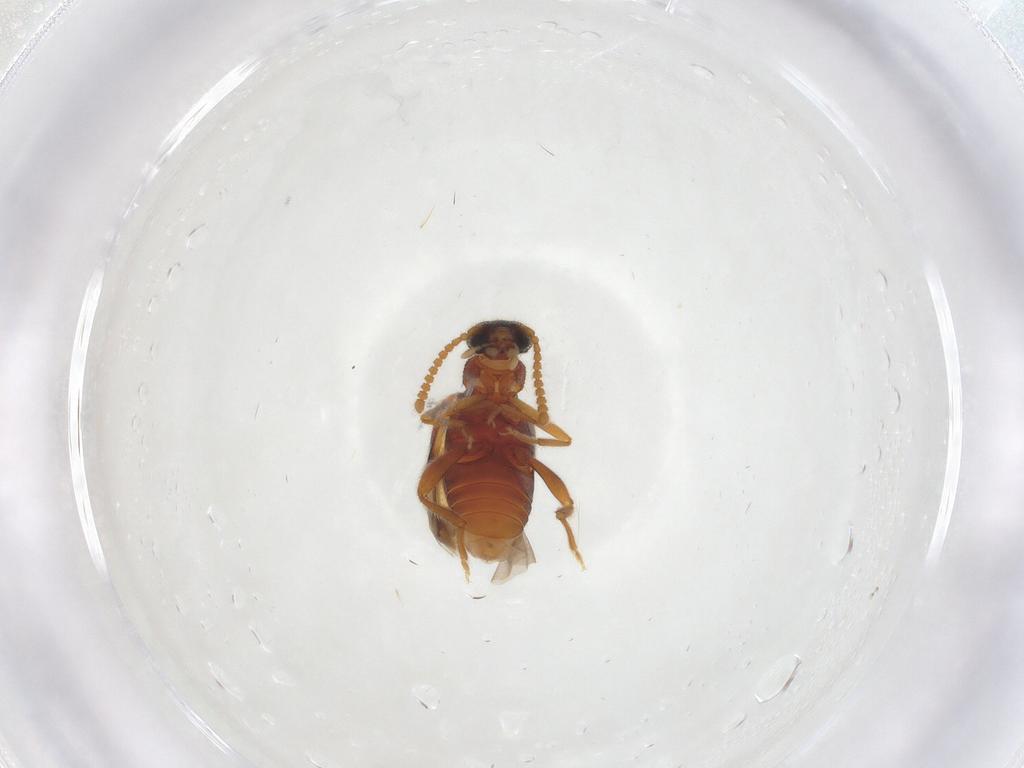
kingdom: Animalia
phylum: Arthropoda
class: Insecta
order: Coleoptera
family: Aderidae
